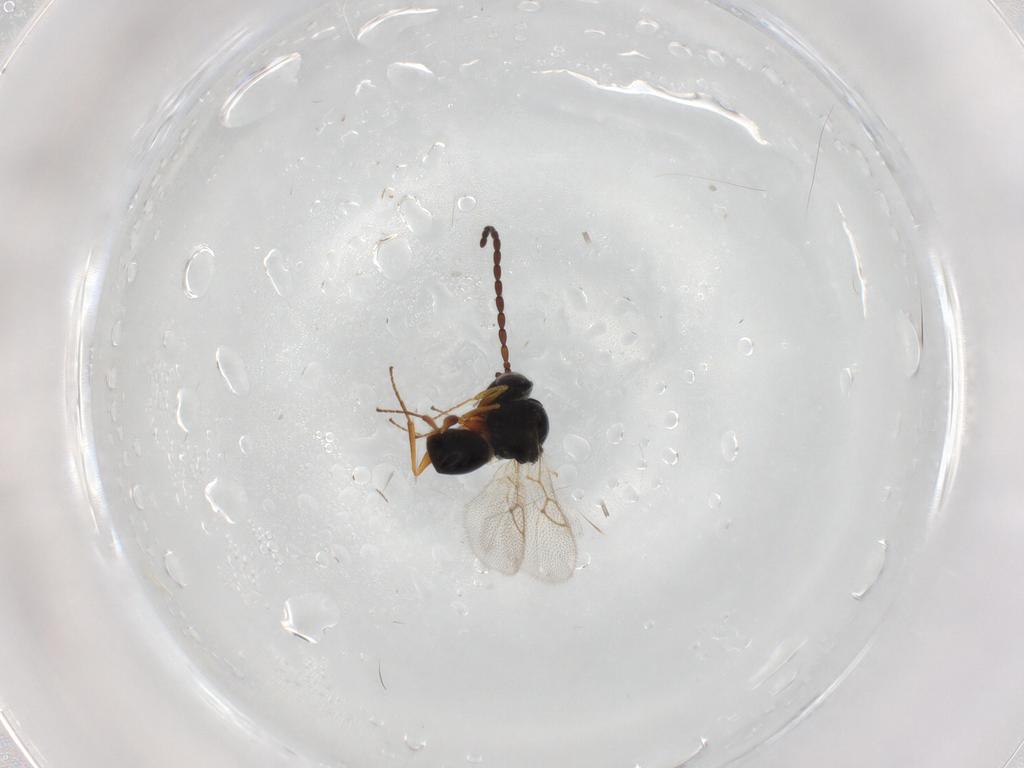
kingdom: Animalia
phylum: Arthropoda
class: Insecta
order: Hymenoptera
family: Figitidae
